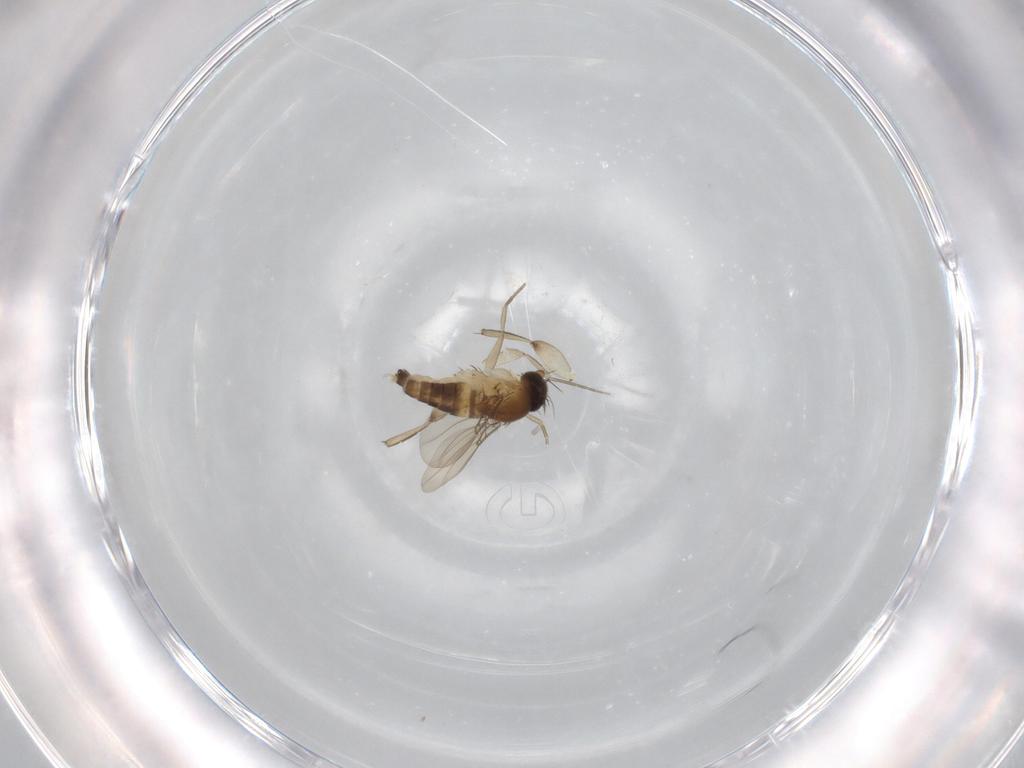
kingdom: Animalia
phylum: Arthropoda
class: Insecta
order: Diptera
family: Phoridae
